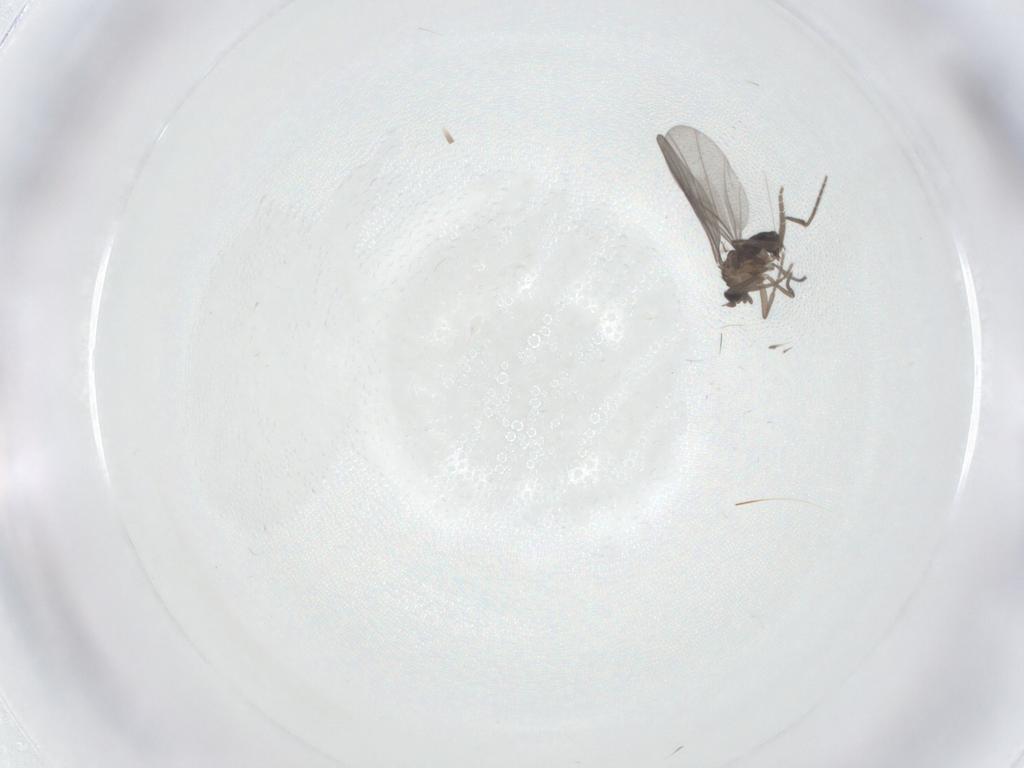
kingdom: Animalia
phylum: Arthropoda
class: Insecta
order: Diptera
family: Phoridae
